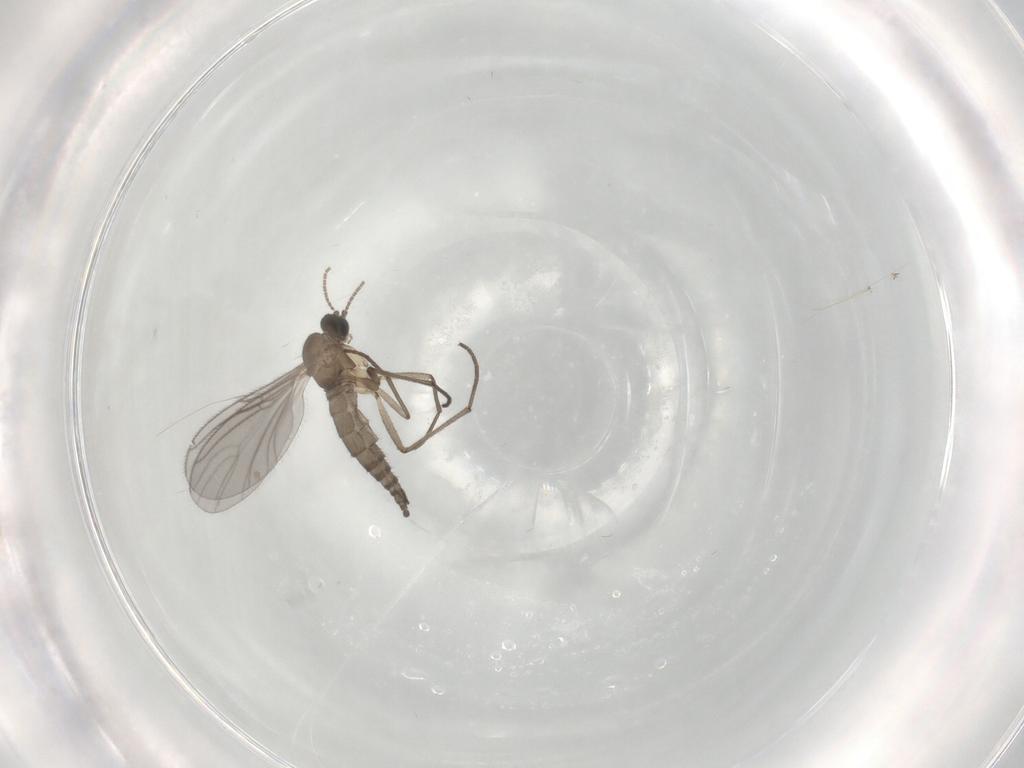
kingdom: Animalia
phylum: Arthropoda
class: Insecta
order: Diptera
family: Sciaridae
